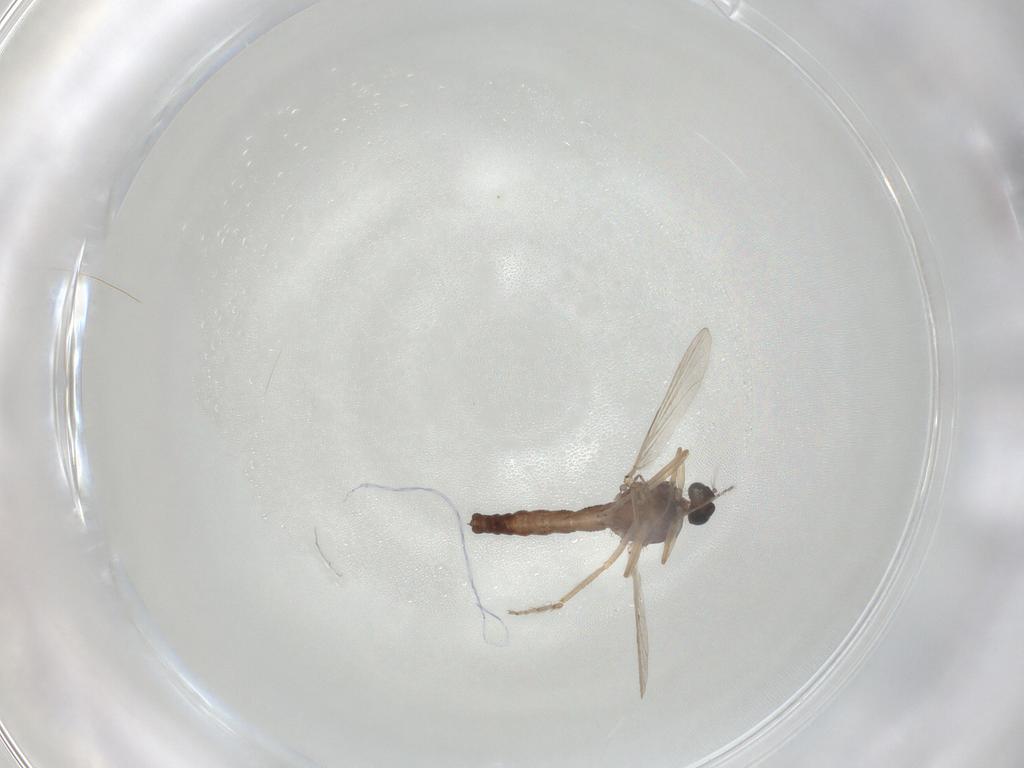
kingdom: Animalia
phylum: Arthropoda
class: Insecta
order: Diptera
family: Ceratopogonidae
